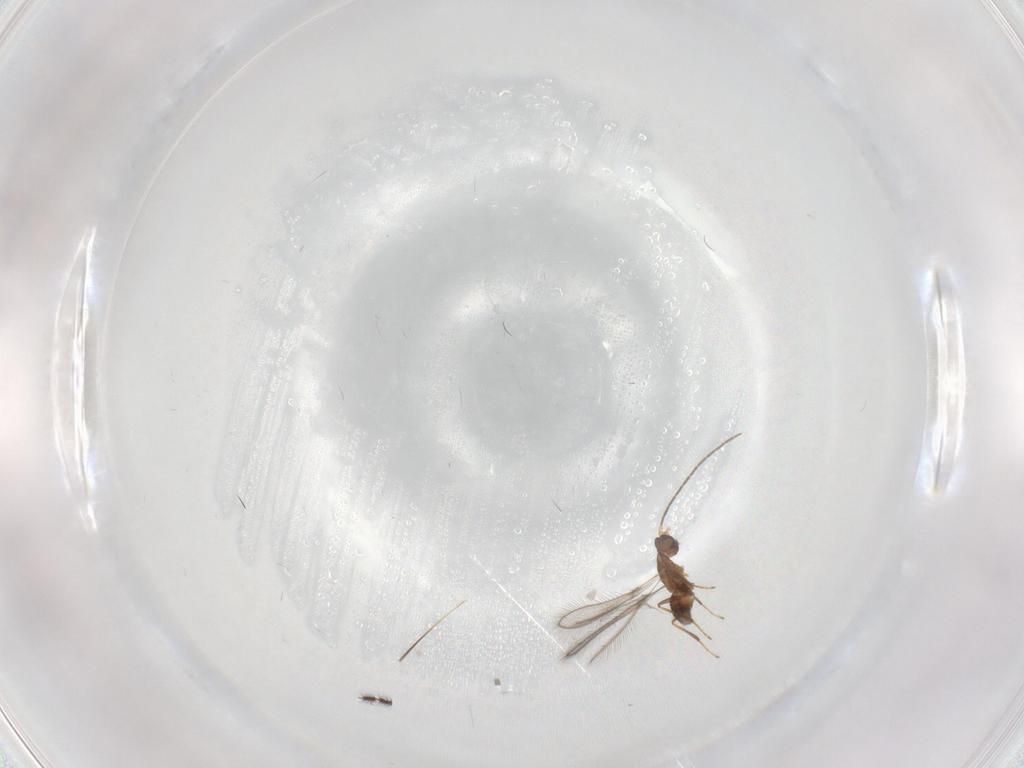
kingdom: Animalia
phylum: Arthropoda
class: Insecta
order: Hymenoptera
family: Mymaridae
